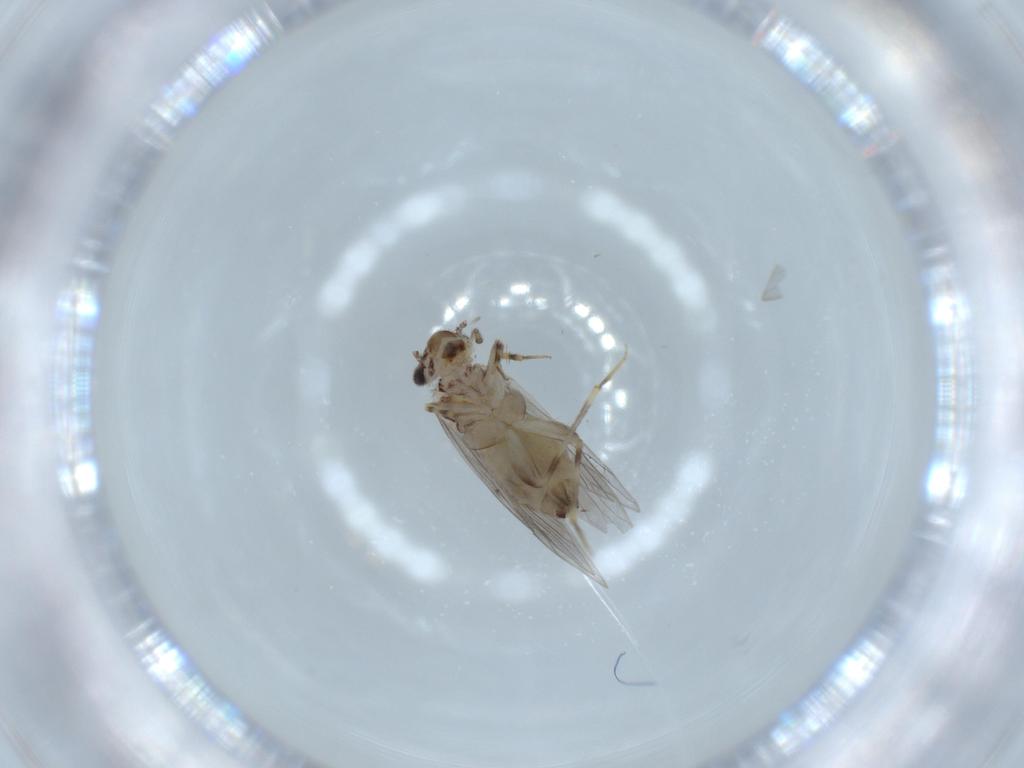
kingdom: Animalia
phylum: Arthropoda
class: Insecta
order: Psocodea
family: Lepidopsocidae
